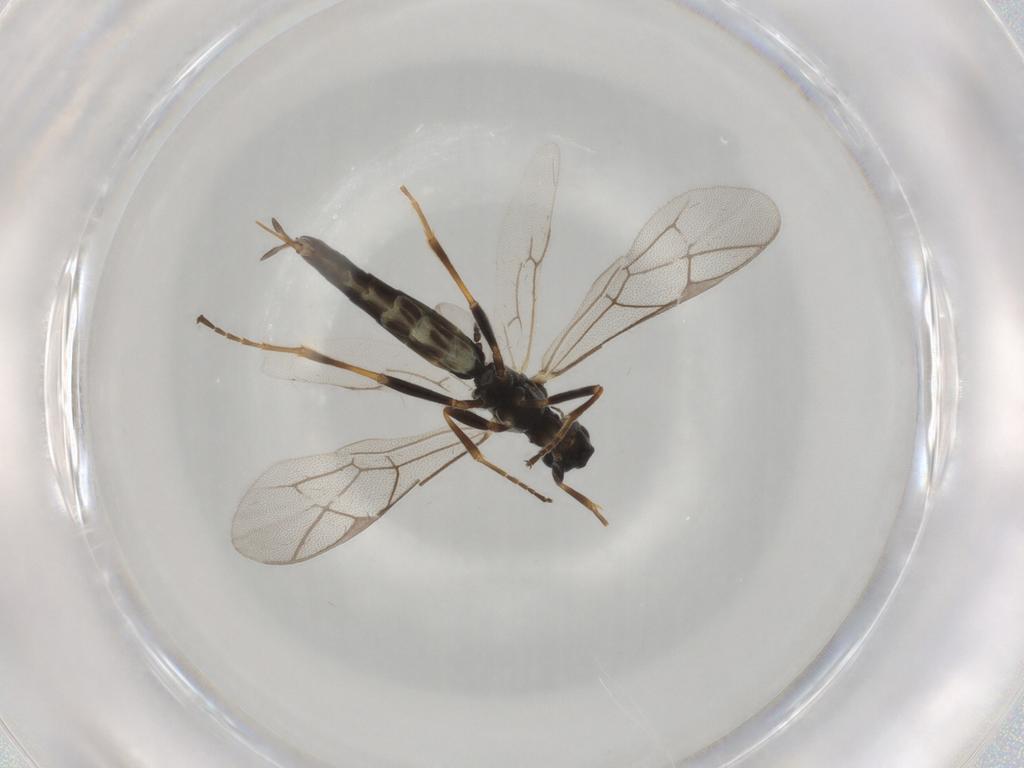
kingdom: Animalia
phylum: Arthropoda
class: Insecta
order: Hymenoptera
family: Ichneumonidae
